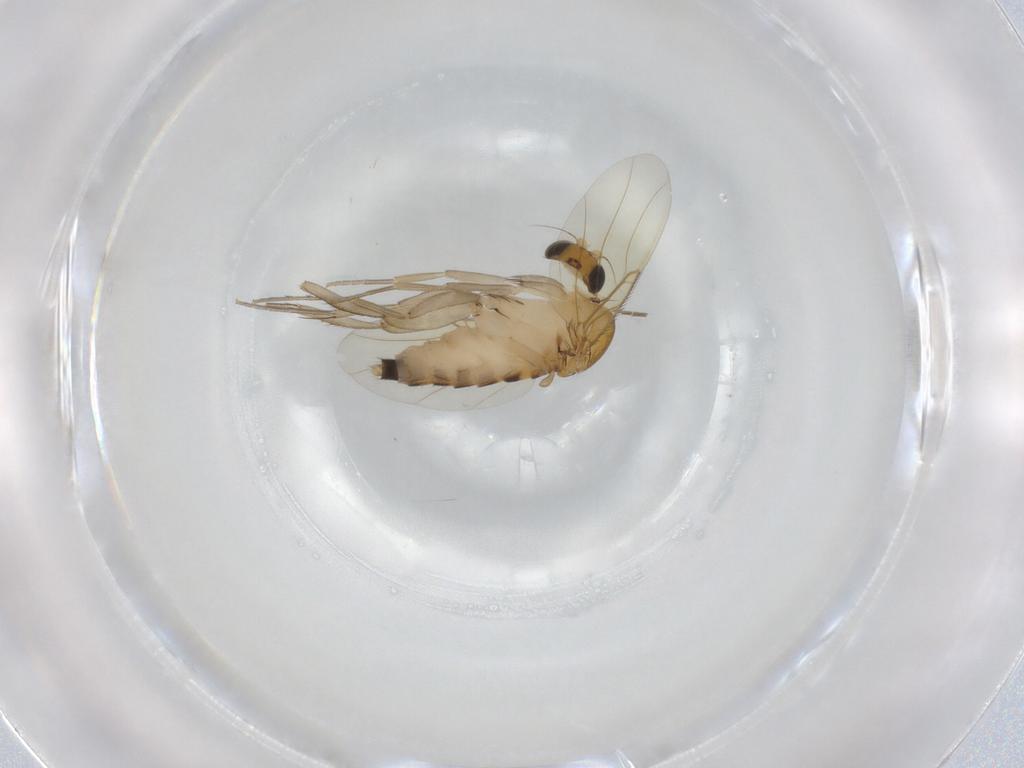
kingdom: Animalia
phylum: Arthropoda
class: Insecta
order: Diptera
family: Phoridae
